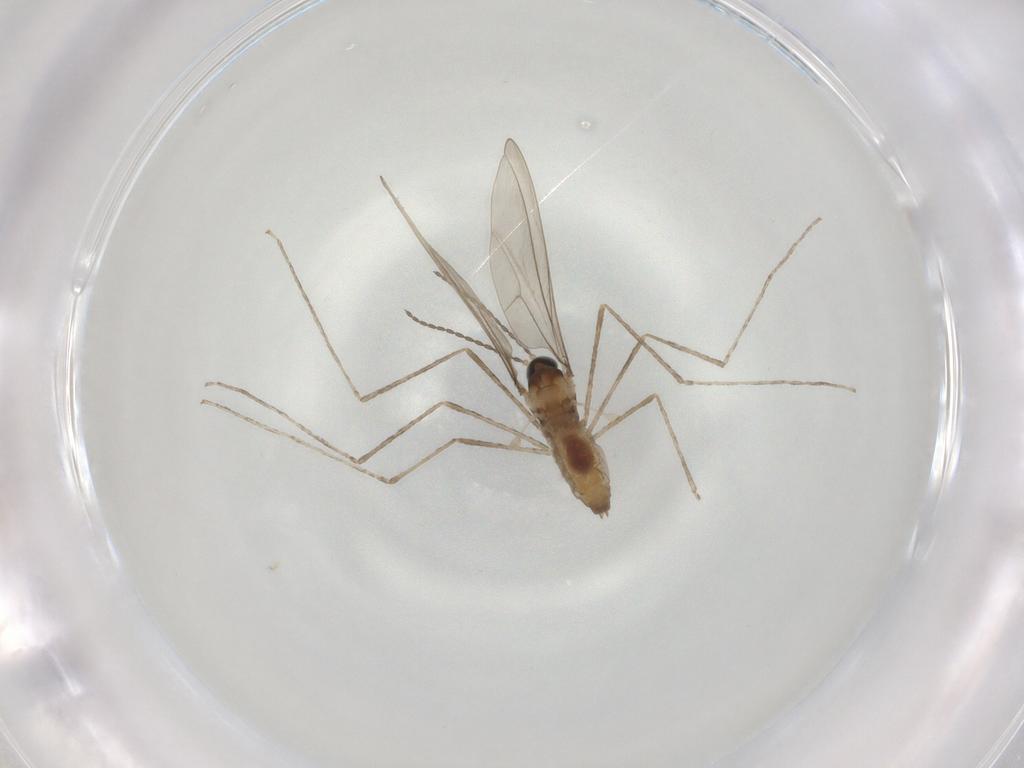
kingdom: Animalia
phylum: Arthropoda
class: Insecta
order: Diptera
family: Cecidomyiidae
